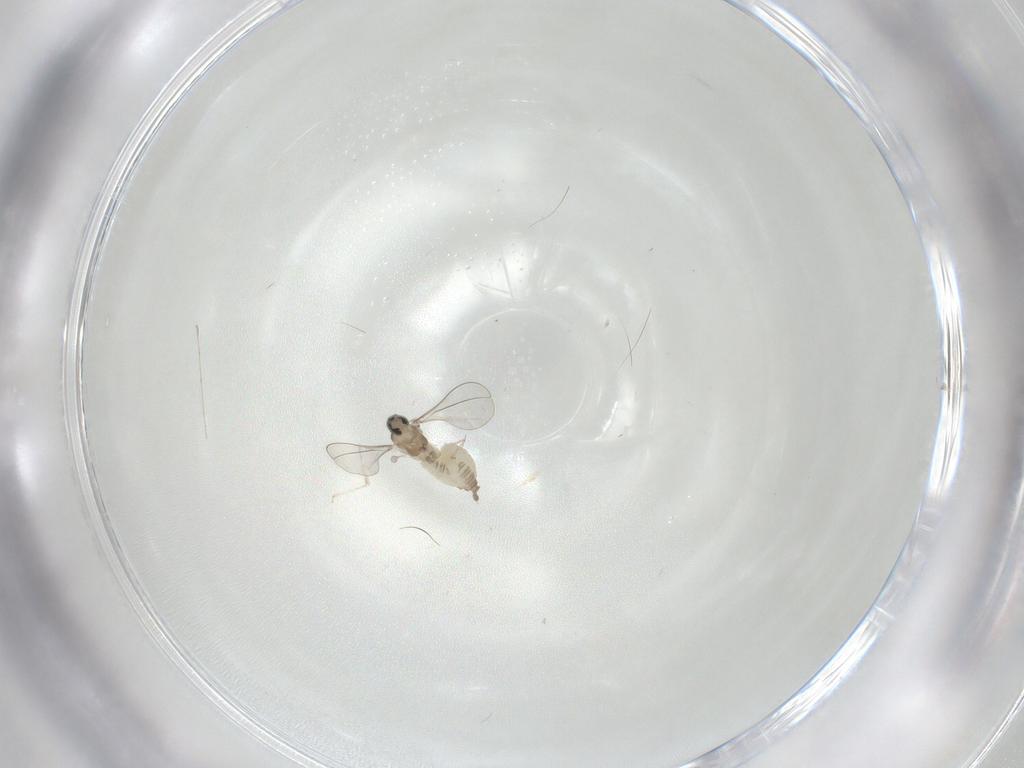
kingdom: Animalia
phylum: Arthropoda
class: Insecta
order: Diptera
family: Cecidomyiidae
